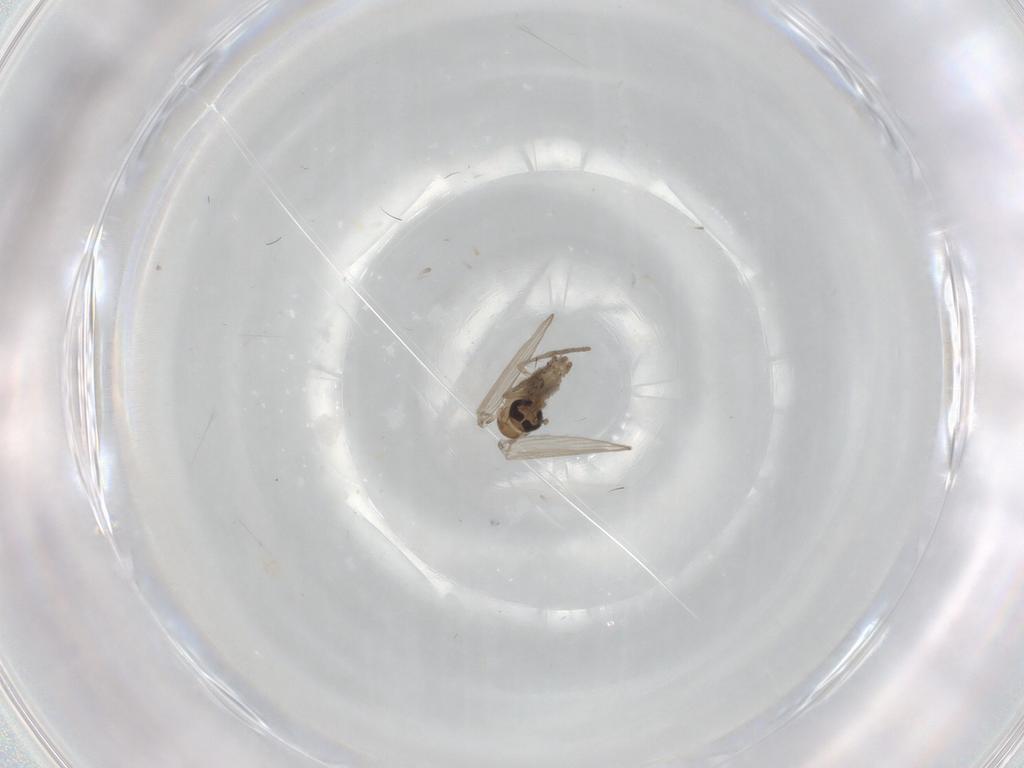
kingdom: Animalia
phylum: Arthropoda
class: Insecta
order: Diptera
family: Psychodidae
